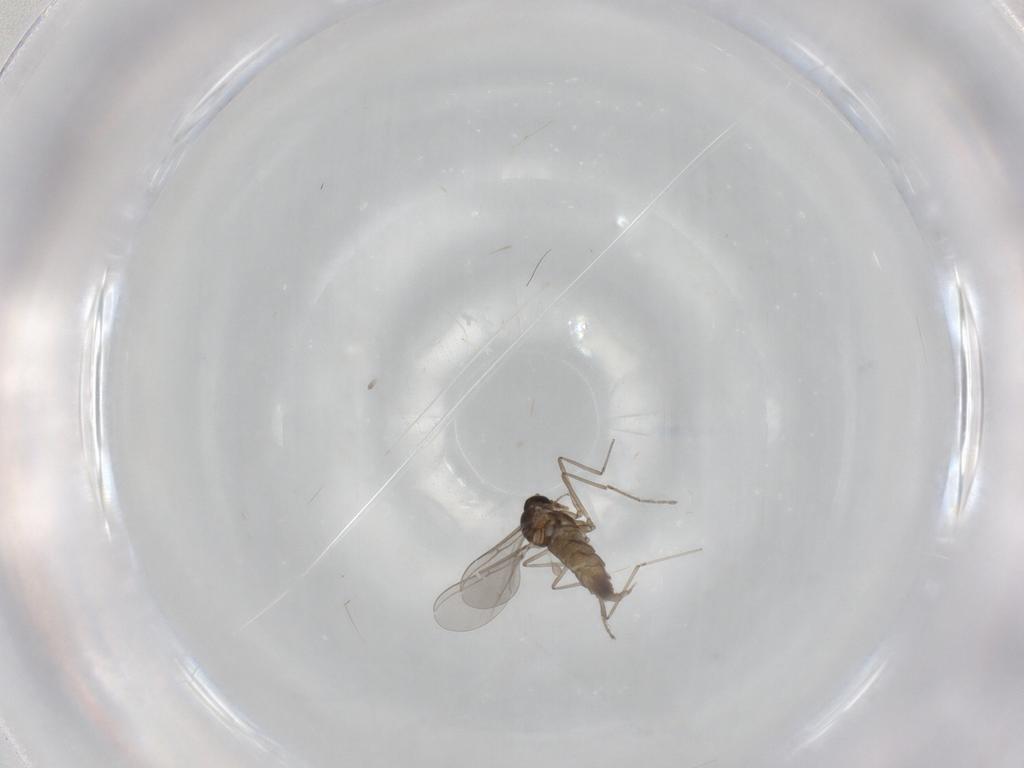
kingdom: Animalia
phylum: Arthropoda
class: Insecta
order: Diptera
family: Cecidomyiidae
